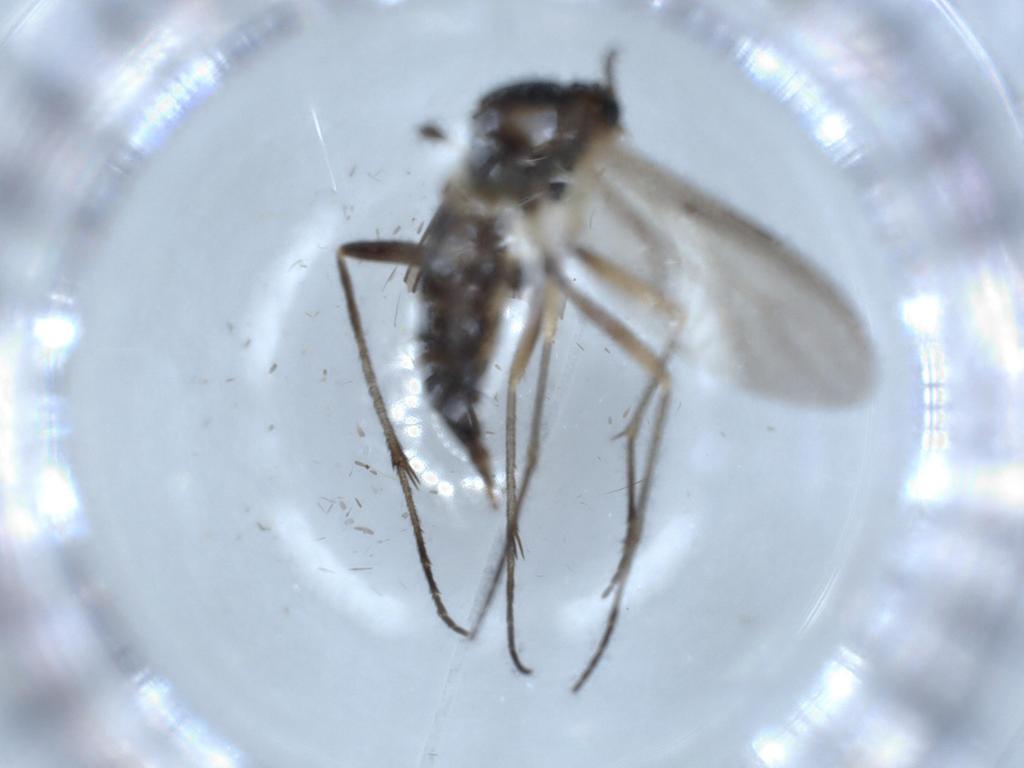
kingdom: Animalia
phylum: Arthropoda
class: Insecta
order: Diptera
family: Sciaridae
